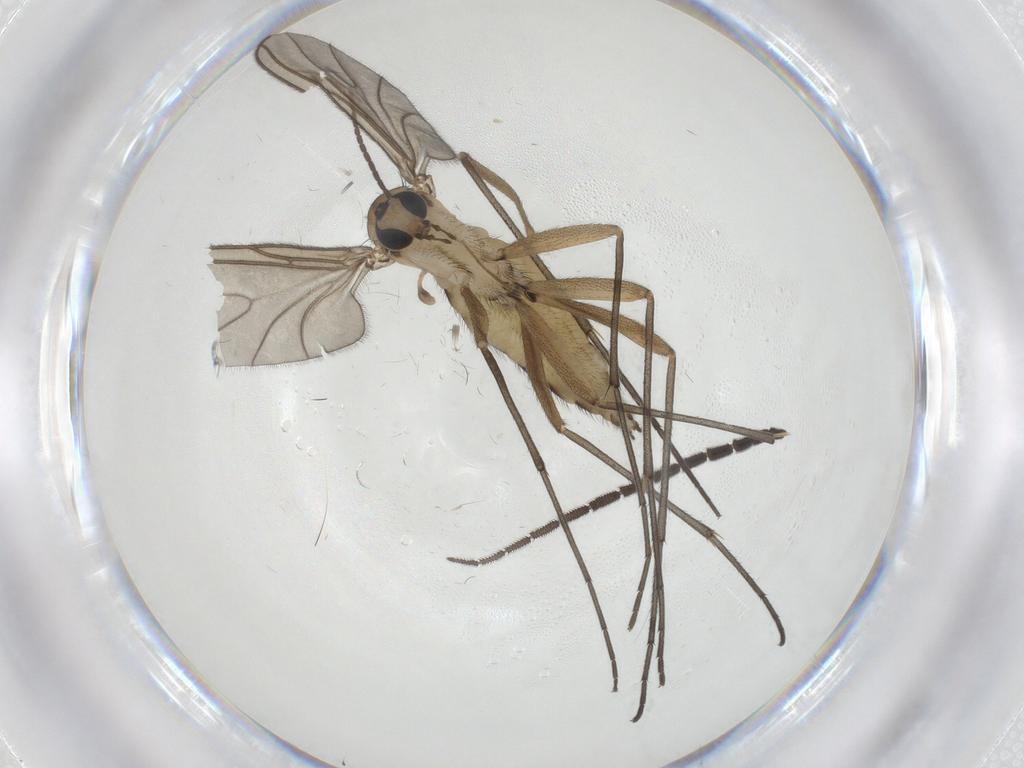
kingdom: Animalia
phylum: Arthropoda
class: Insecta
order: Diptera
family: Sciaridae
